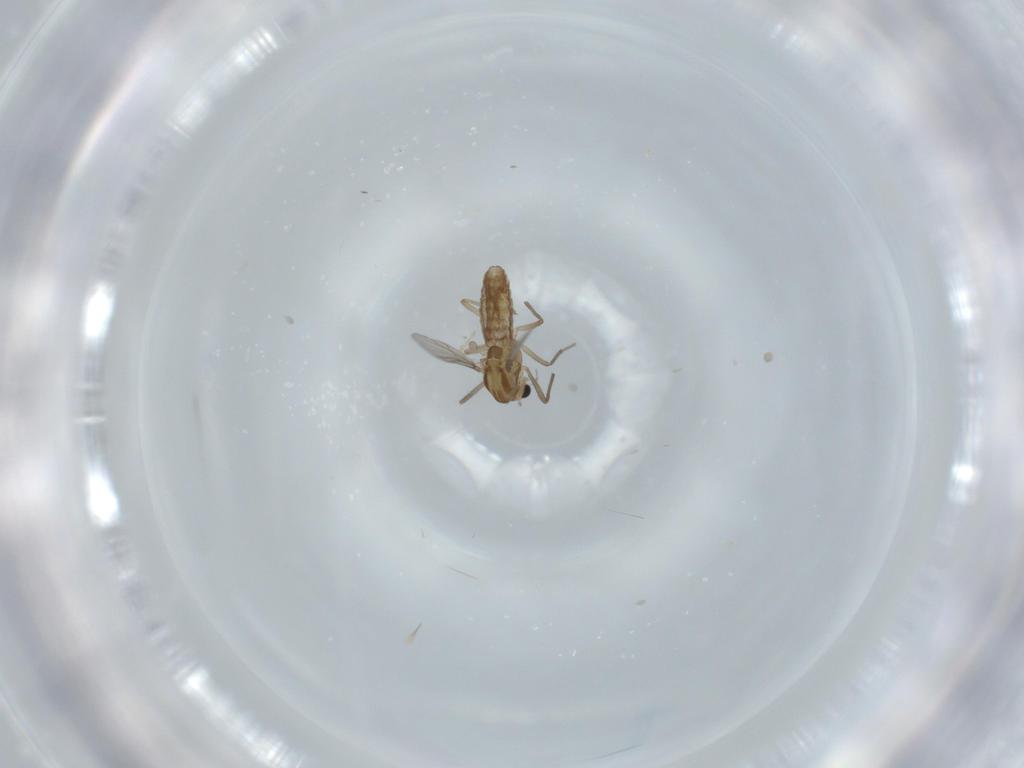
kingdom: Animalia
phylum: Arthropoda
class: Insecta
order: Diptera
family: Chironomidae
